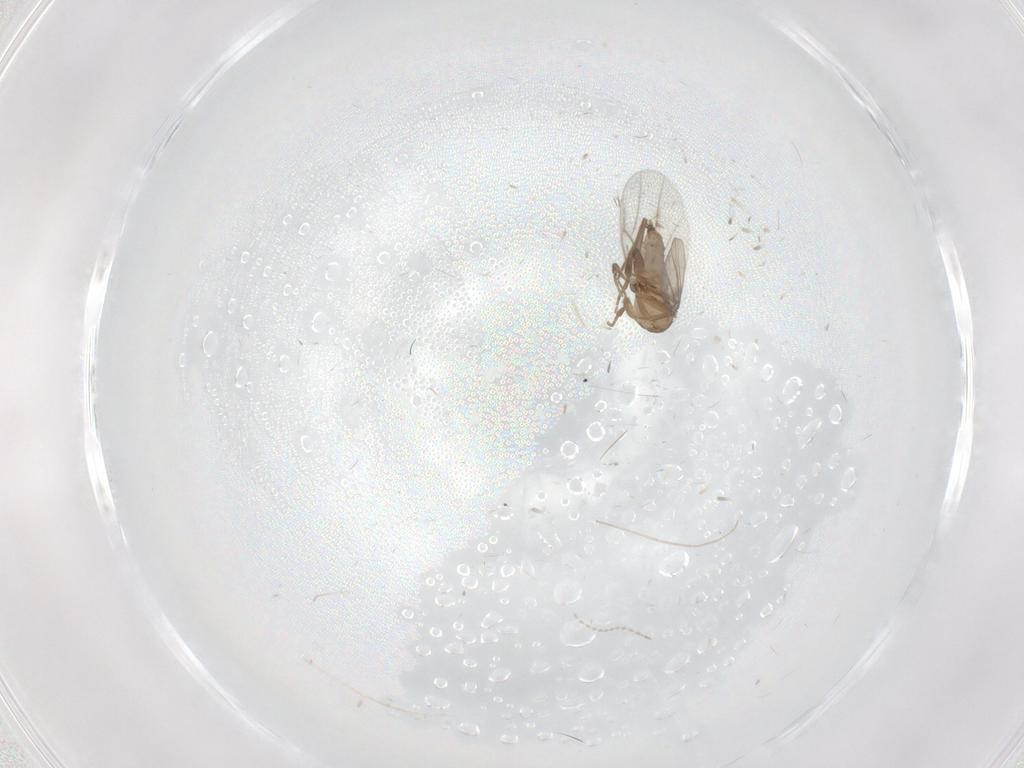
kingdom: Animalia
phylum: Arthropoda
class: Insecta
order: Diptera
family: Chironomidae
